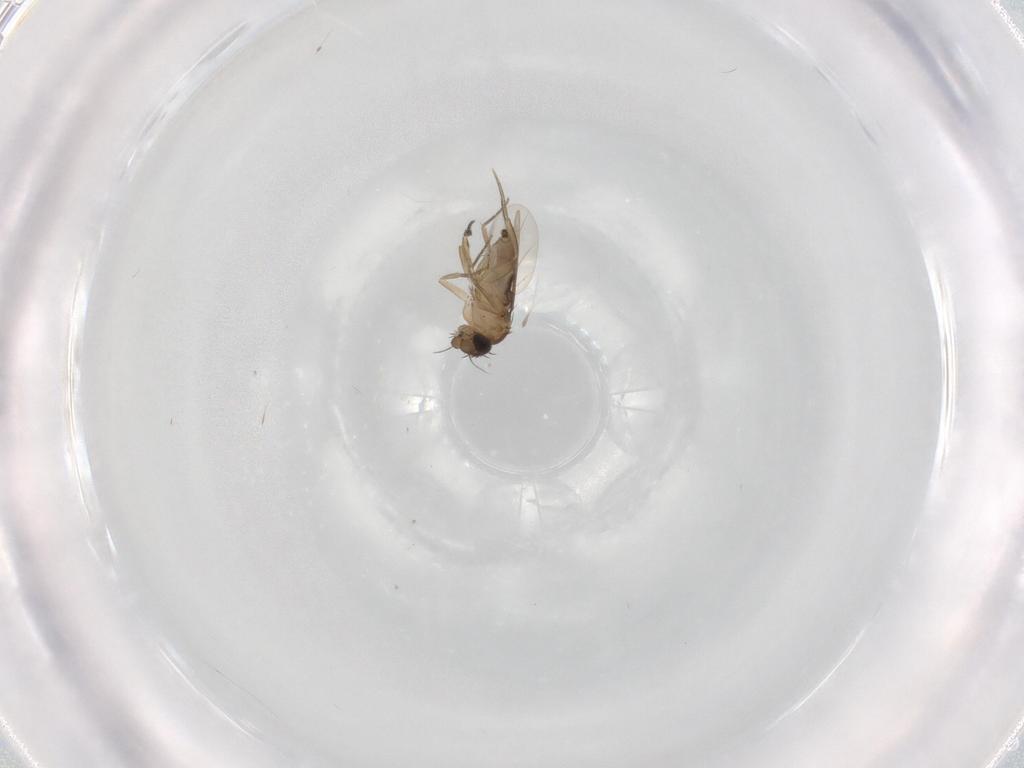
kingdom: Animalia
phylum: Arthropoda
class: Insecta
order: Diptera
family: Phoridae
